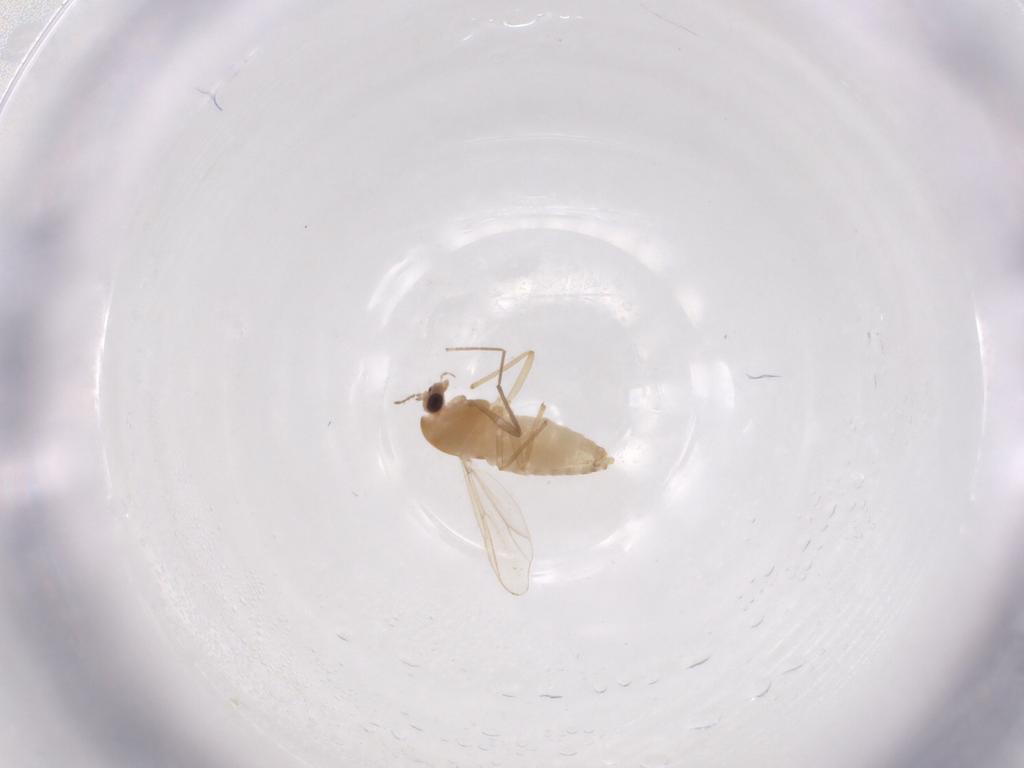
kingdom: Animalia
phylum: Arthropoda
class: Insecta
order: Diptera
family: Chironomidae
